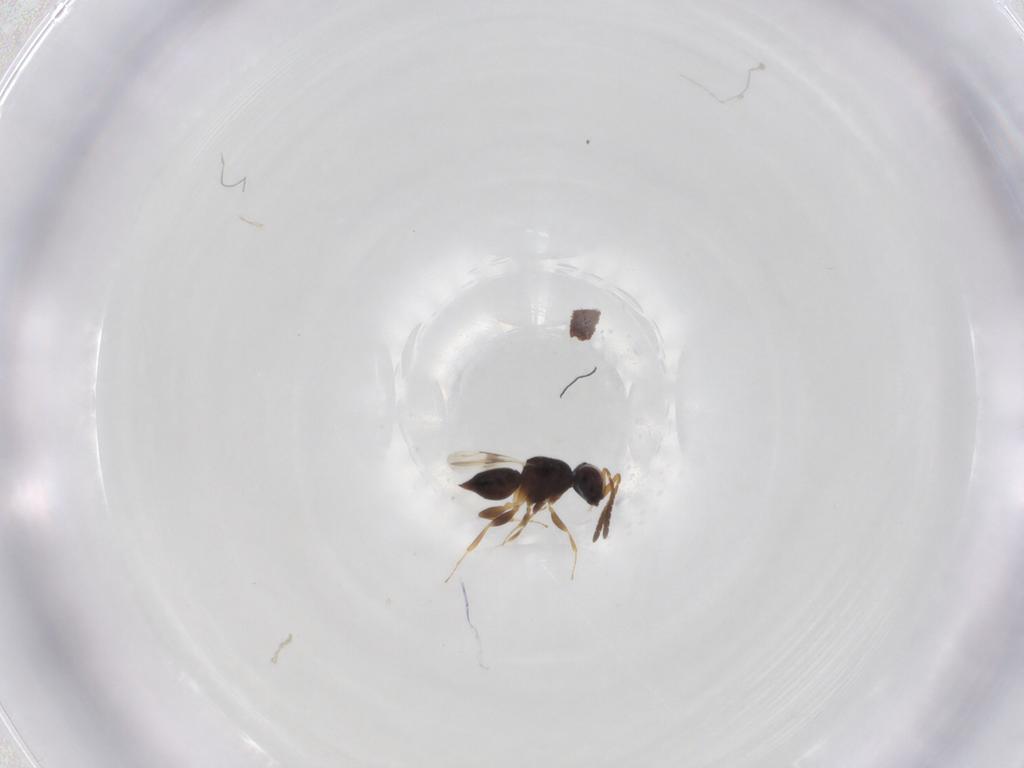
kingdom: Animalia
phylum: Arthropoda
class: Insecta
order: Hymenoptera
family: Ceraphronidae
